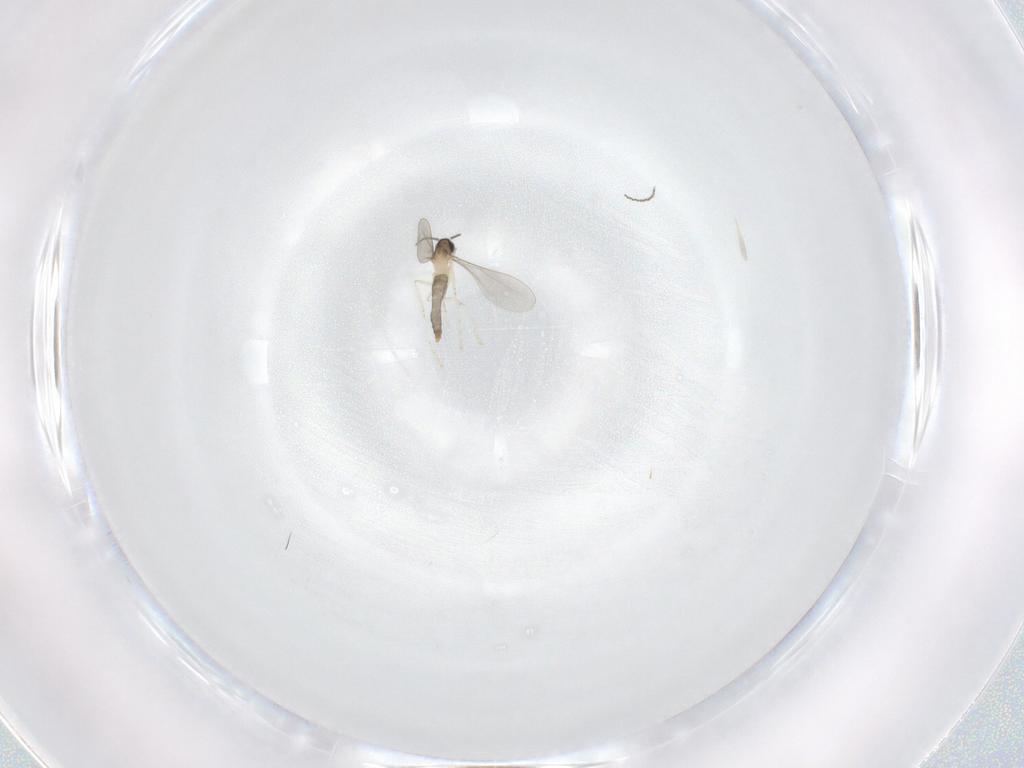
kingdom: Animalia
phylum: Arthropoda
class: Insecta
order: Diptera
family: Cecidomyiidae
